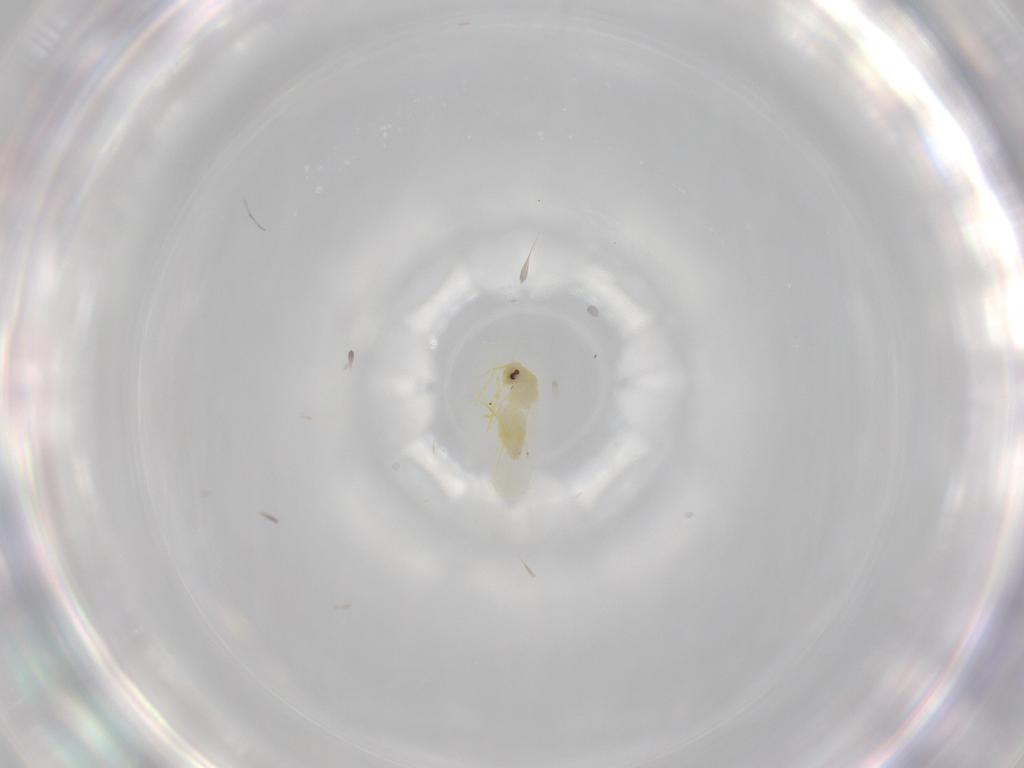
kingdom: Animalia
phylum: Arthropoda
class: Insecta
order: Hemiptera
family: Aleyrodidae
